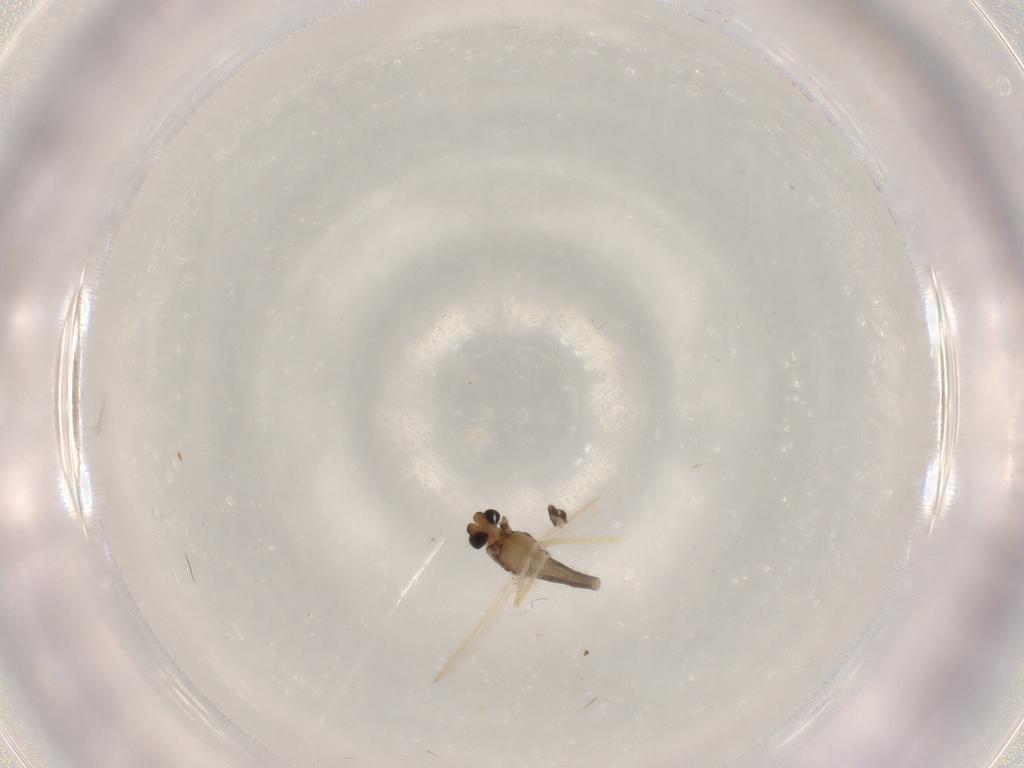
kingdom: Animalia
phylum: Arthropoda
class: Insecta
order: Diptera
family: Chironomidae
